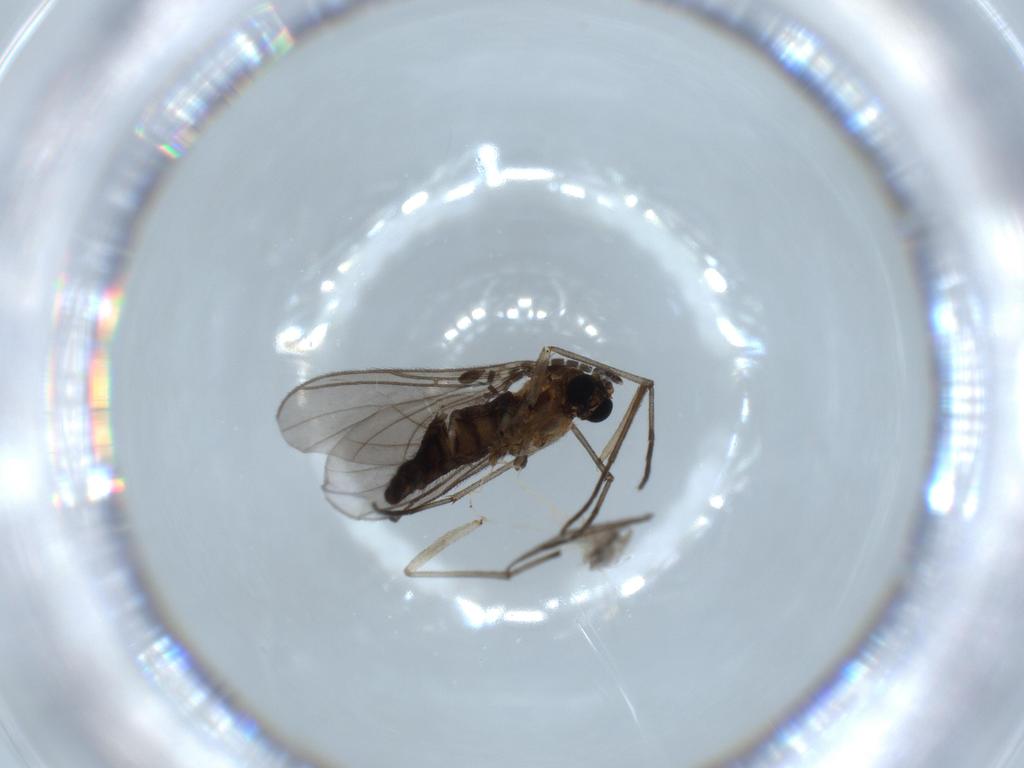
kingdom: Animalia
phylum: Arthropoda
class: Insecta
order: Diptera
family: Sciaridae
